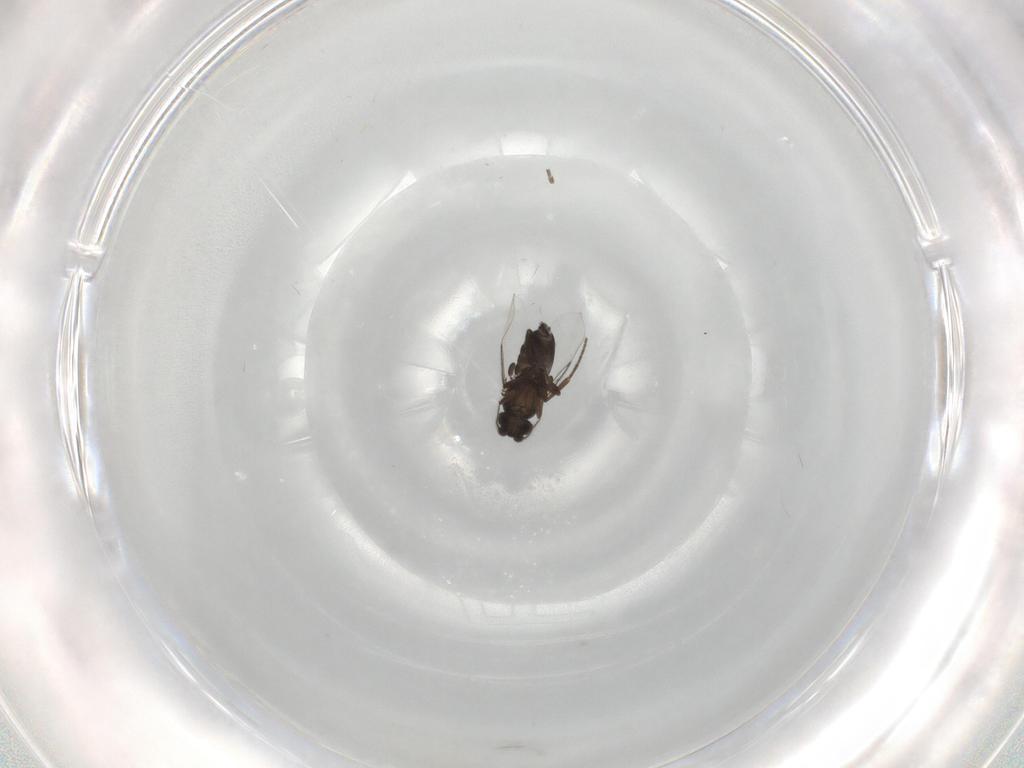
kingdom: Animalia
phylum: Arthropoda
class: Insecta
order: Diptera
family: Cecidomyiidae
